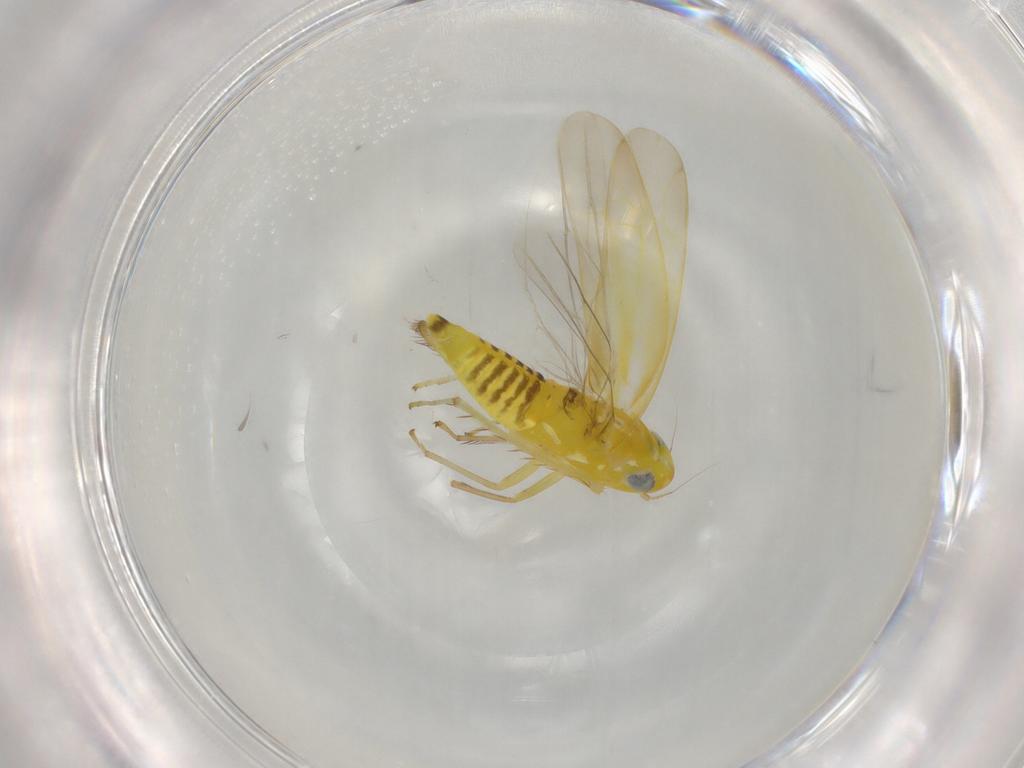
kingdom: Animalia
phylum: Arthropoda
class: Insecta
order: Hemiptera
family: Cicadellidae
